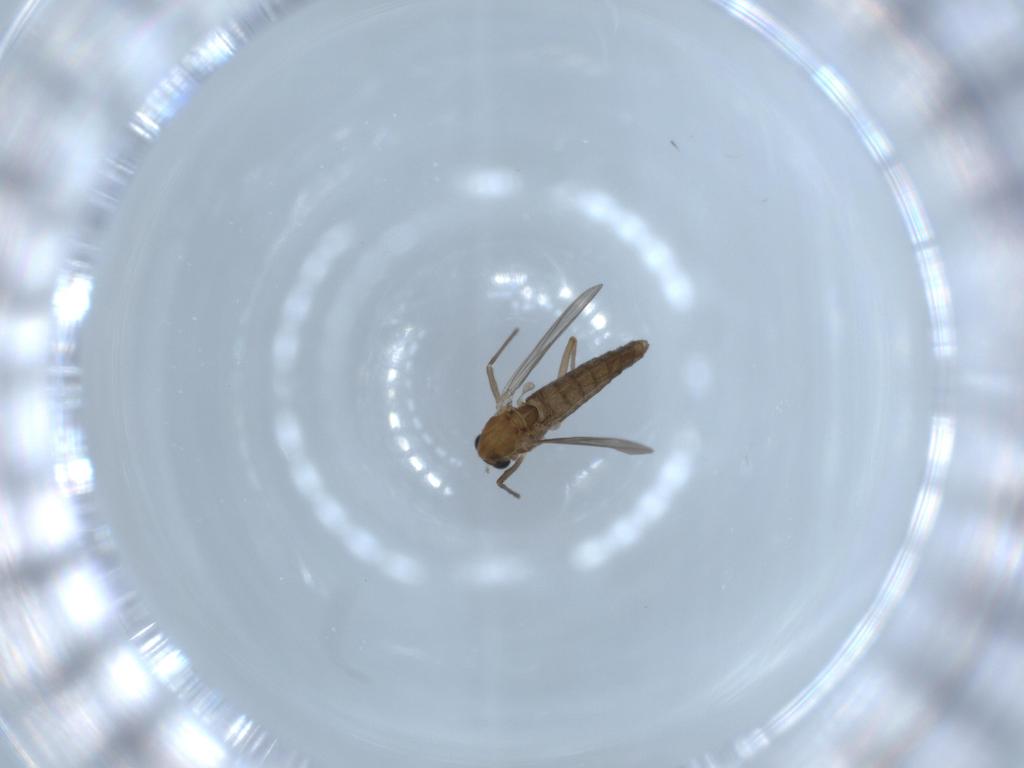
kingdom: Animalia
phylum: Arthropoda
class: Insecta
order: Diptera
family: Chironomidae
